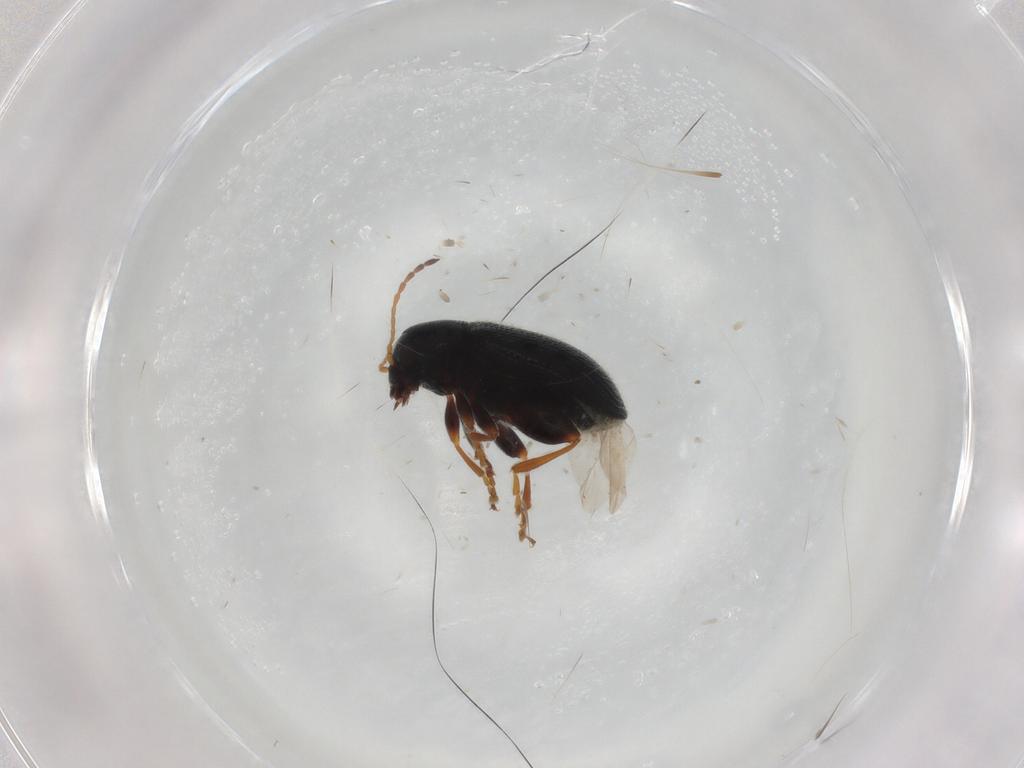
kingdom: Animalia
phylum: Arthropoda
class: Insecta
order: Coleoptera
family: Chrysomelidae
